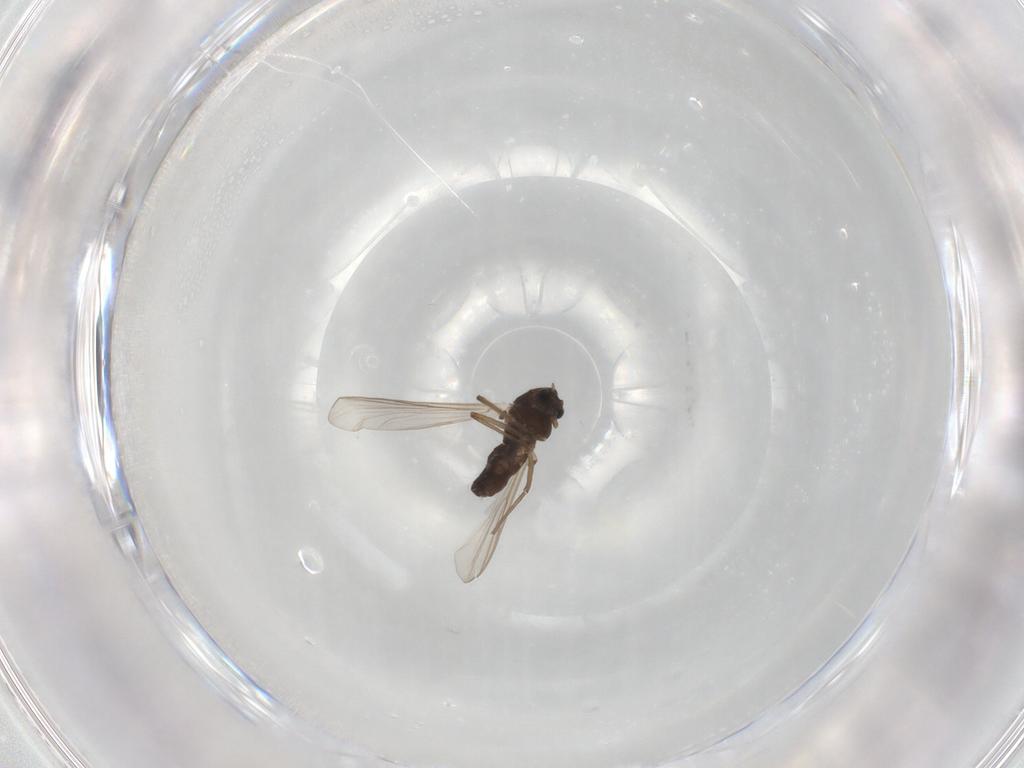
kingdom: Animalia
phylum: Arthropoda
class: Insecta
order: Diptera
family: Chironomidae
